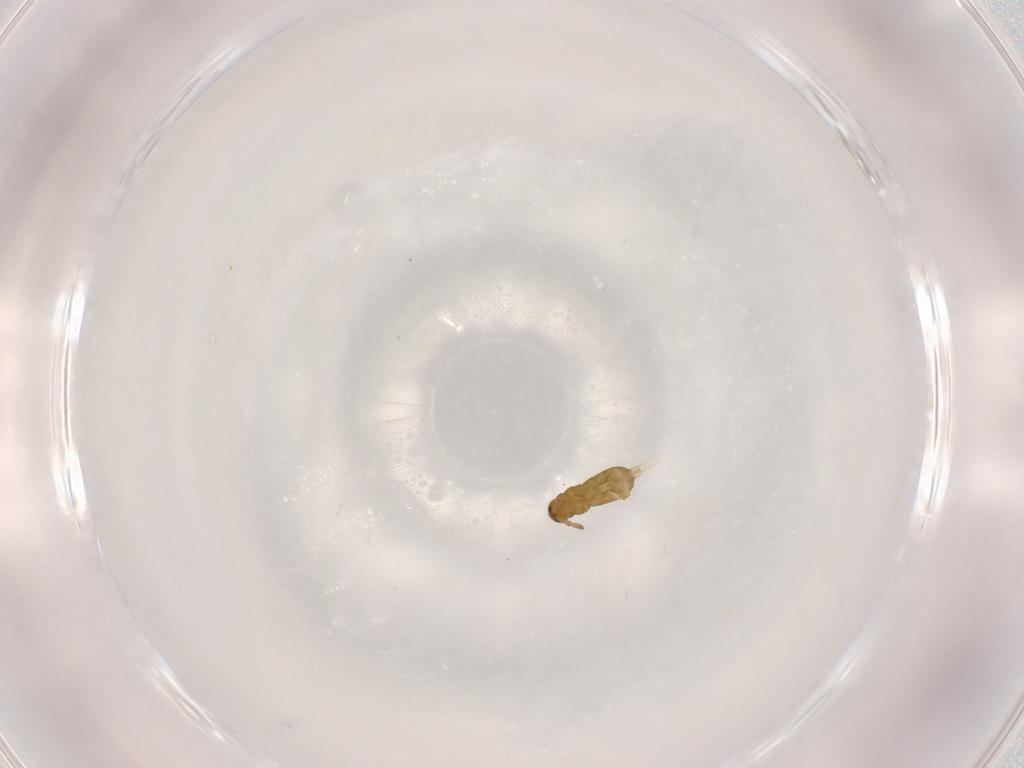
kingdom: Animalia
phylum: Arthropoda
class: Collembola
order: Entomobryomorpha
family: Isotomidae
